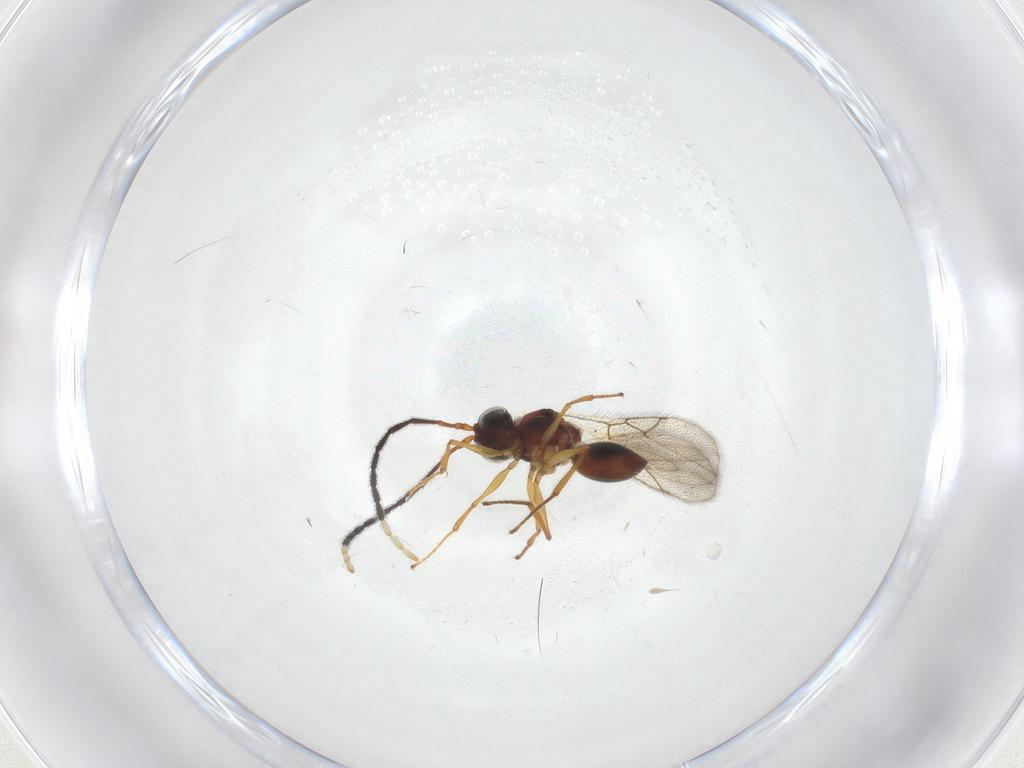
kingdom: Animalia
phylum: Arthropoda
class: Insecta
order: Hymenoptera
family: Figitidae
